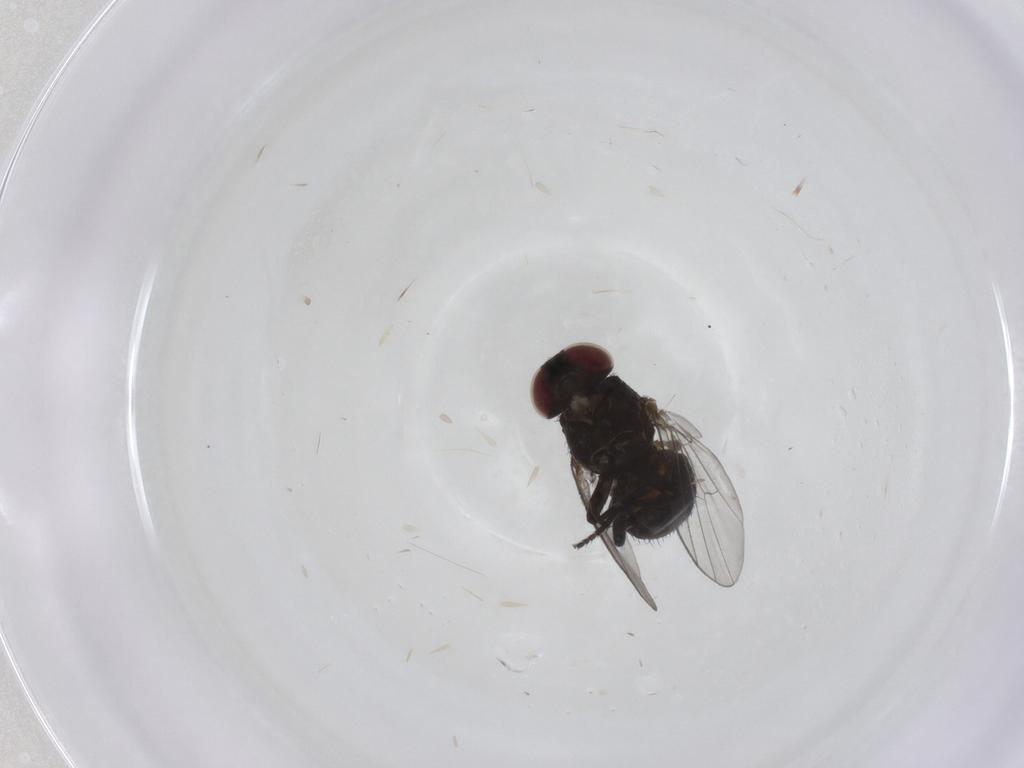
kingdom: Animalia
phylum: Arthropoda
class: Insecta
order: Diptera
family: Agromyzidae
